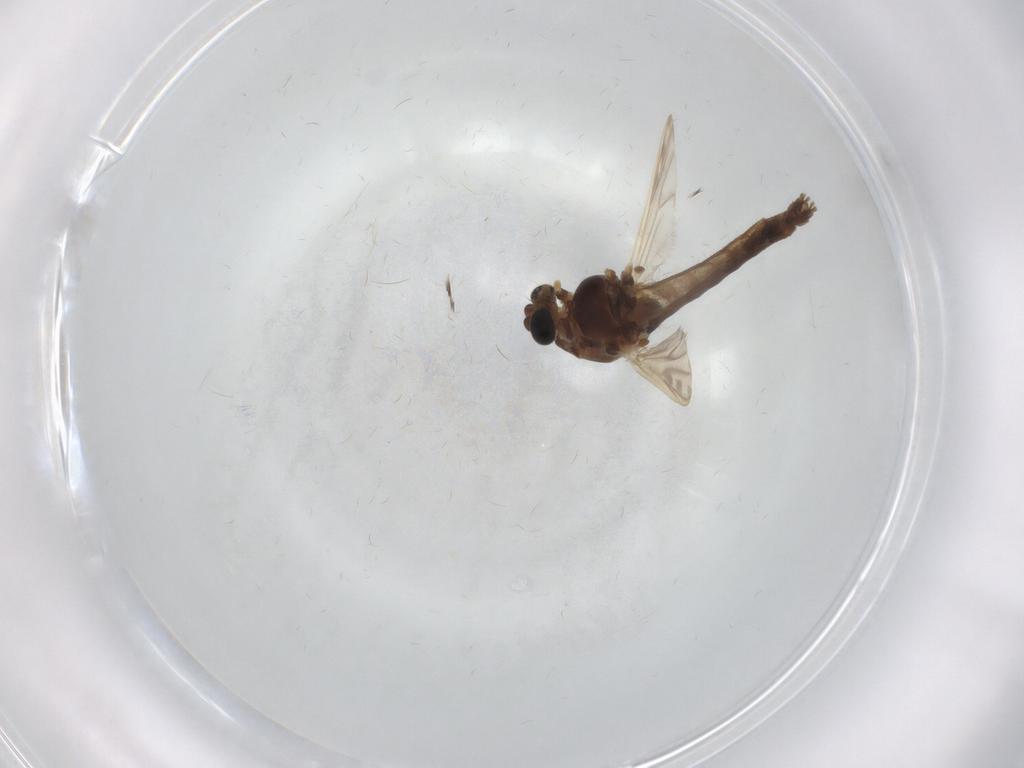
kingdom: Animalia
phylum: Arthropoda
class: Insecta
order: Diptera
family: Chironomidae
